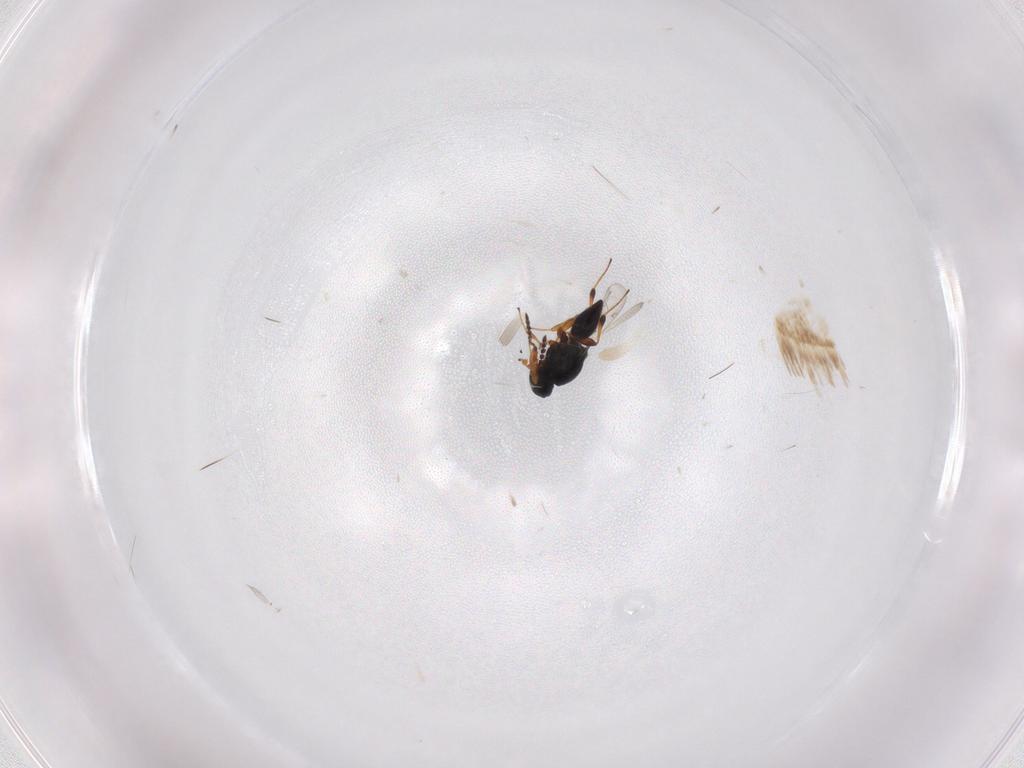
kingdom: Animalia
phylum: Arthropoda
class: Insecta
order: Hymenoptera
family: Formicidae
